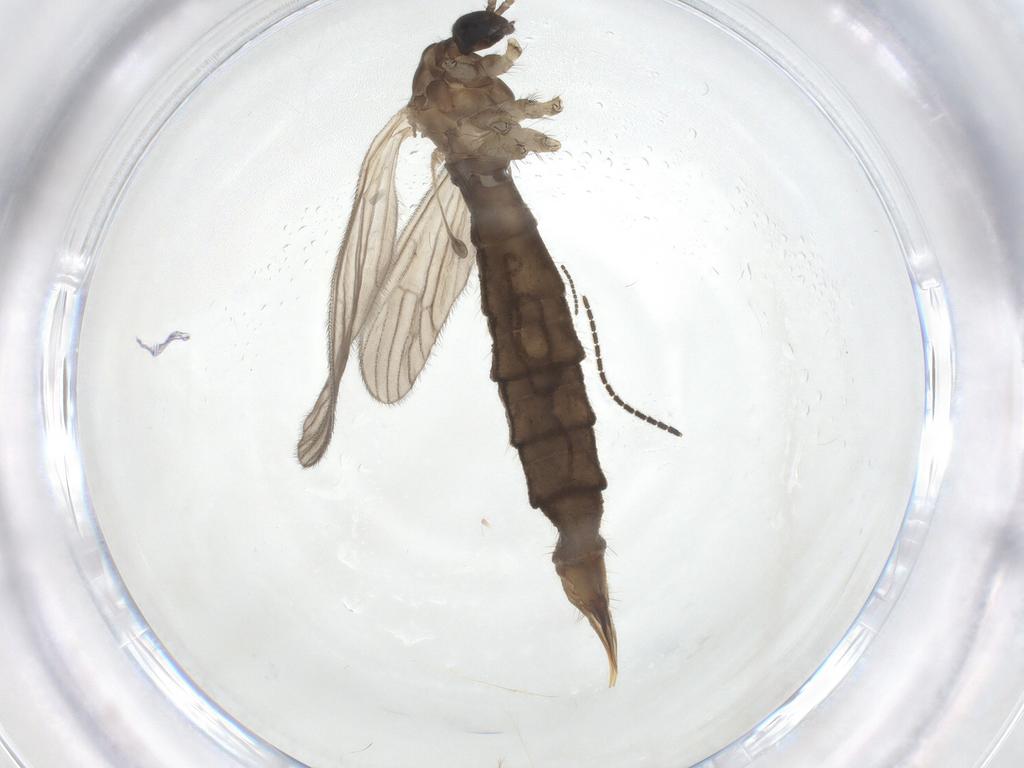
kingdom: Animalia
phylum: Arthropoda
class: Insecta
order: Diptera
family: Sciaridae
